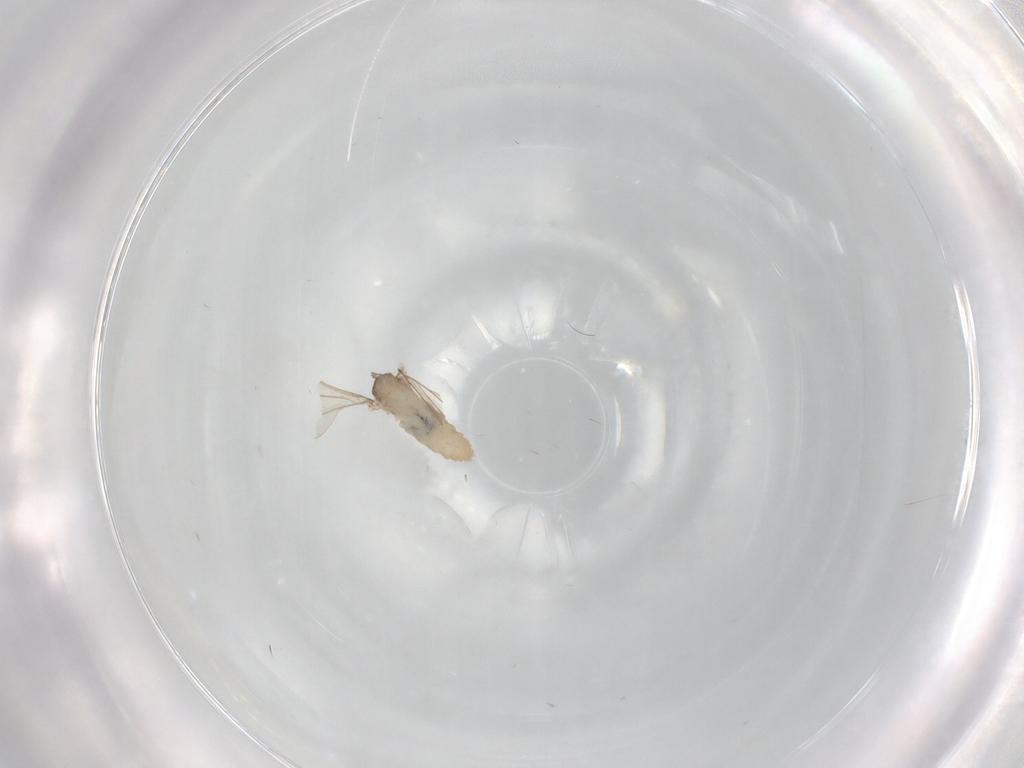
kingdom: Animalia
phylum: Arthropoda
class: Insecta
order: Diptera
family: Cecidomyiidae
